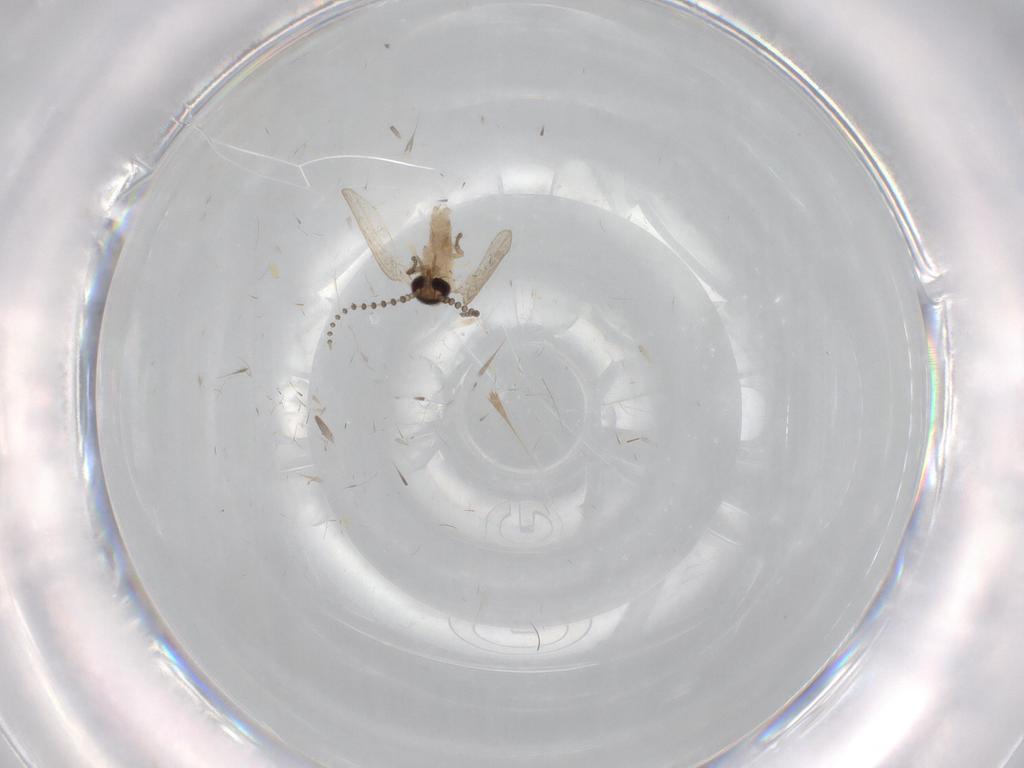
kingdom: Animalia
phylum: Arthropoda
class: Insecta
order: Diptera
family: Psychodidae
